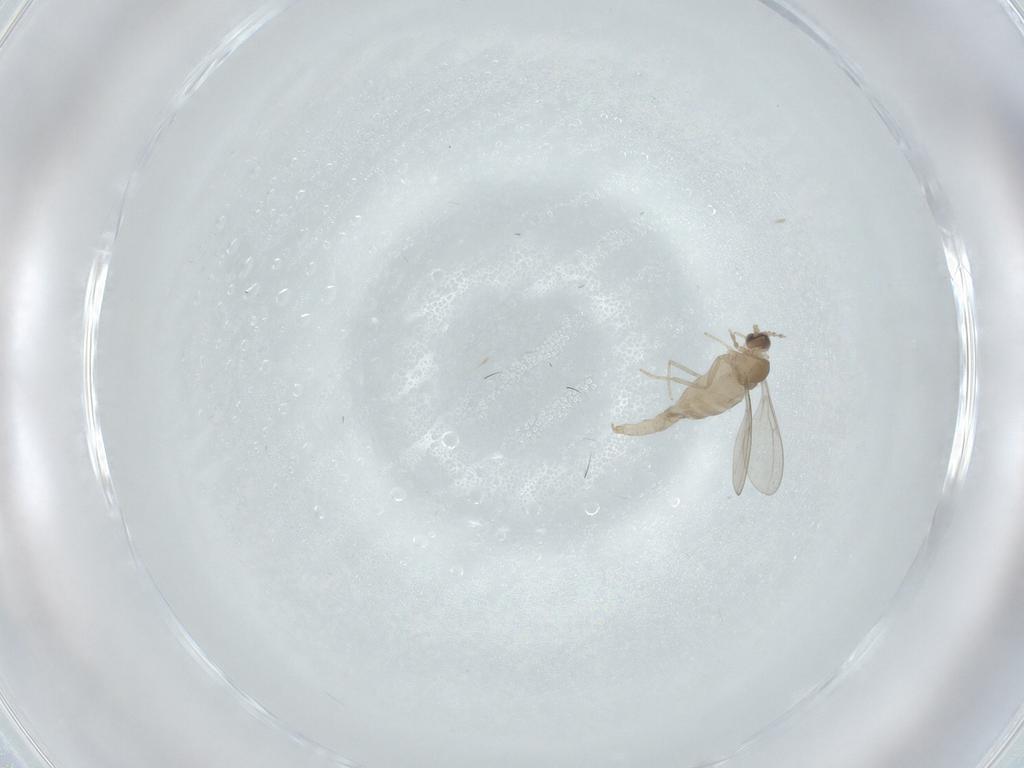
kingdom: Animalia
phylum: Arthropoda
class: Insecta
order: Diptera
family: Cecidomyiidae
